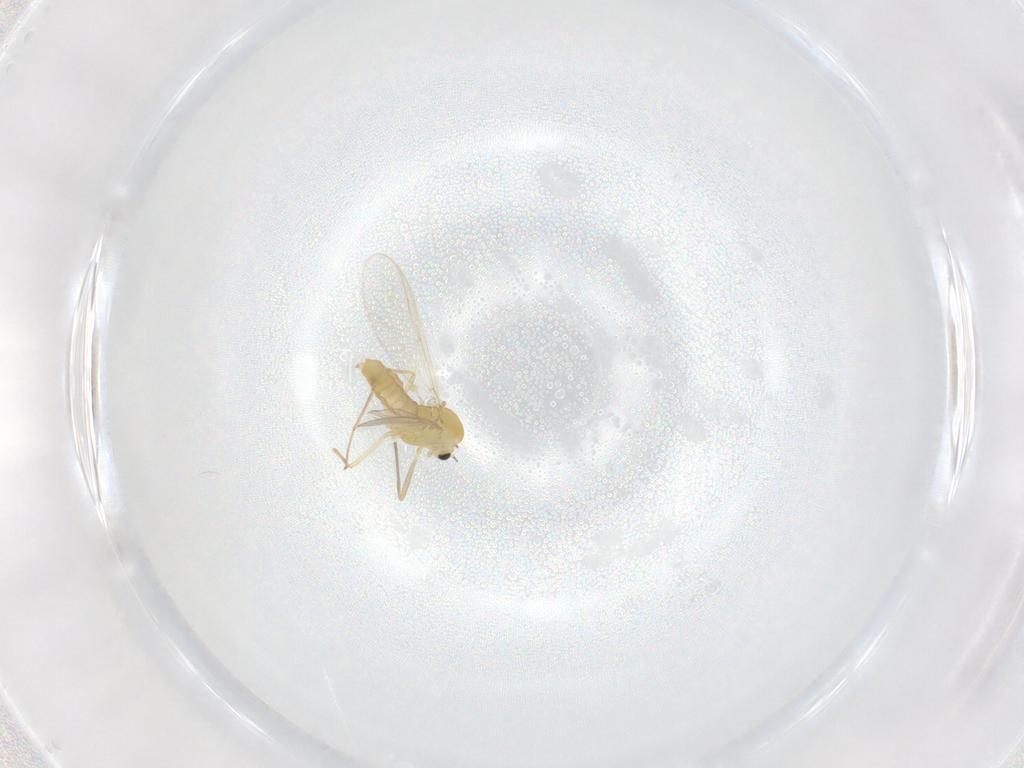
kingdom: Animalia
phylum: Arthropoda
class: Insecta
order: Diptera
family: Chironomidae
